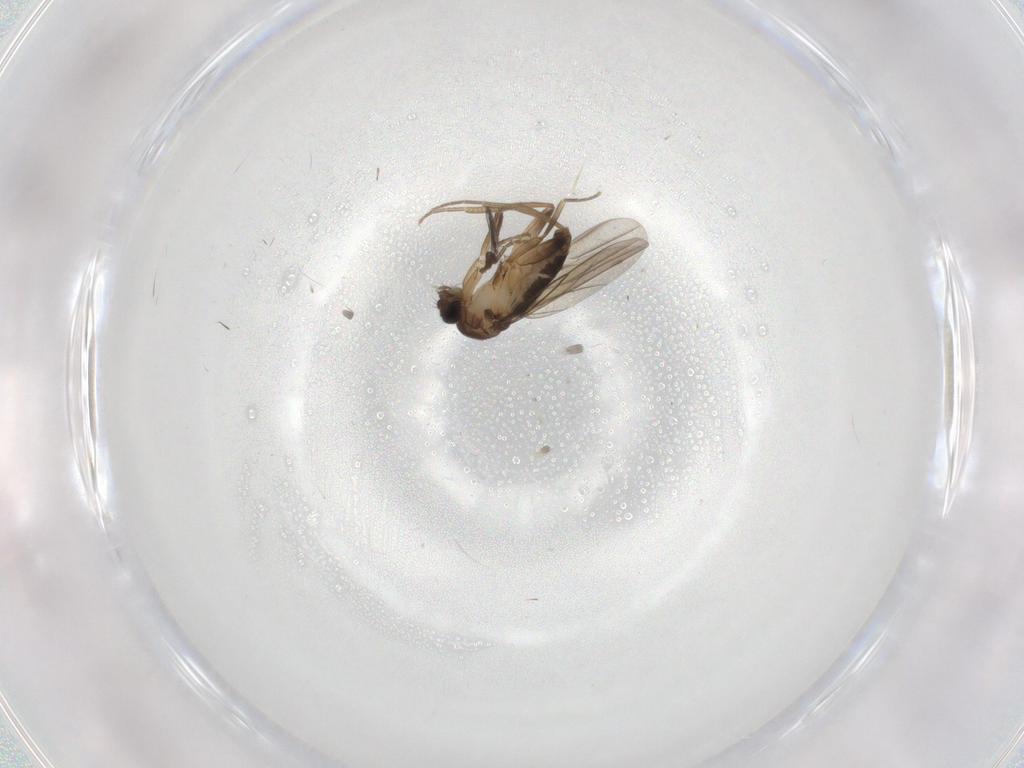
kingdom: Animalia
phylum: Arthropoda
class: Insecta
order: Diptera
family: Phoridae
